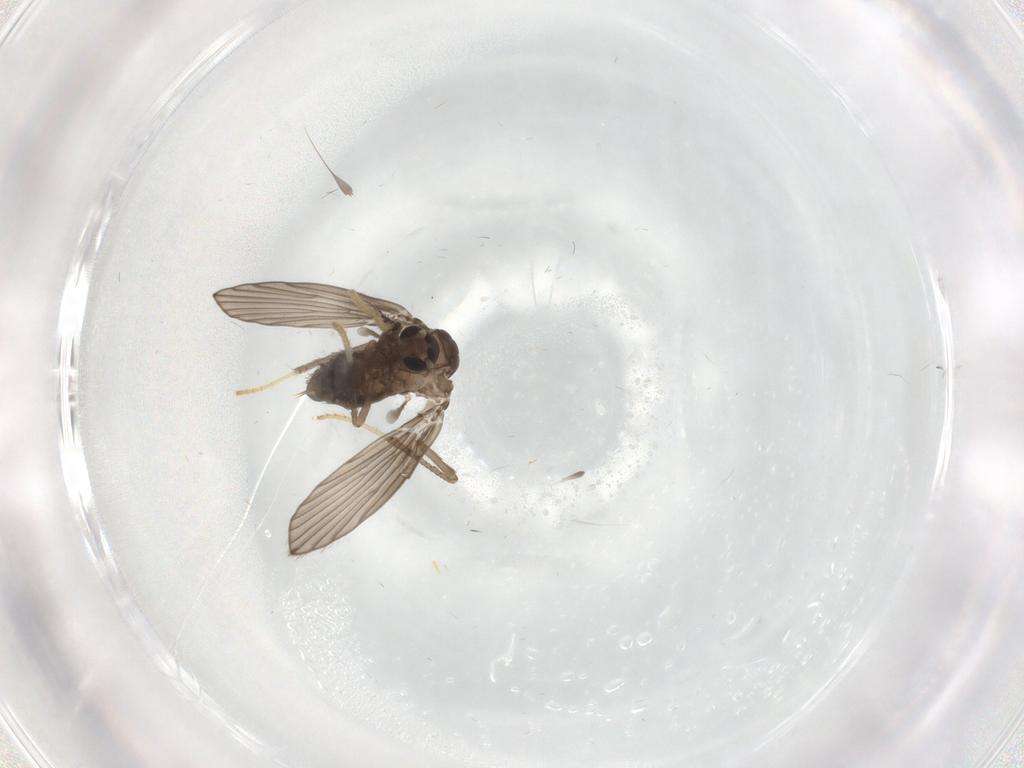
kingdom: Animalia
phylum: Arthropoda
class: Insecta
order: Diptera
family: Psychodidae
